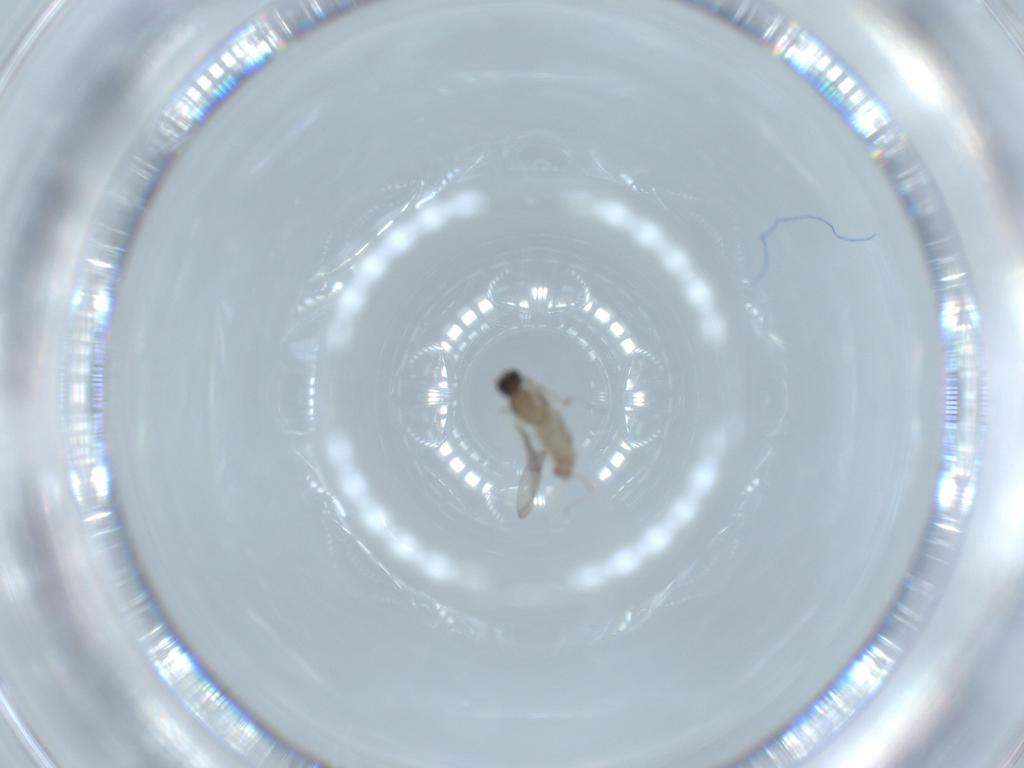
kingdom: Animalia
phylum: Arthropoda
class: Insecta
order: Diptera
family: Cecidomyiidae
